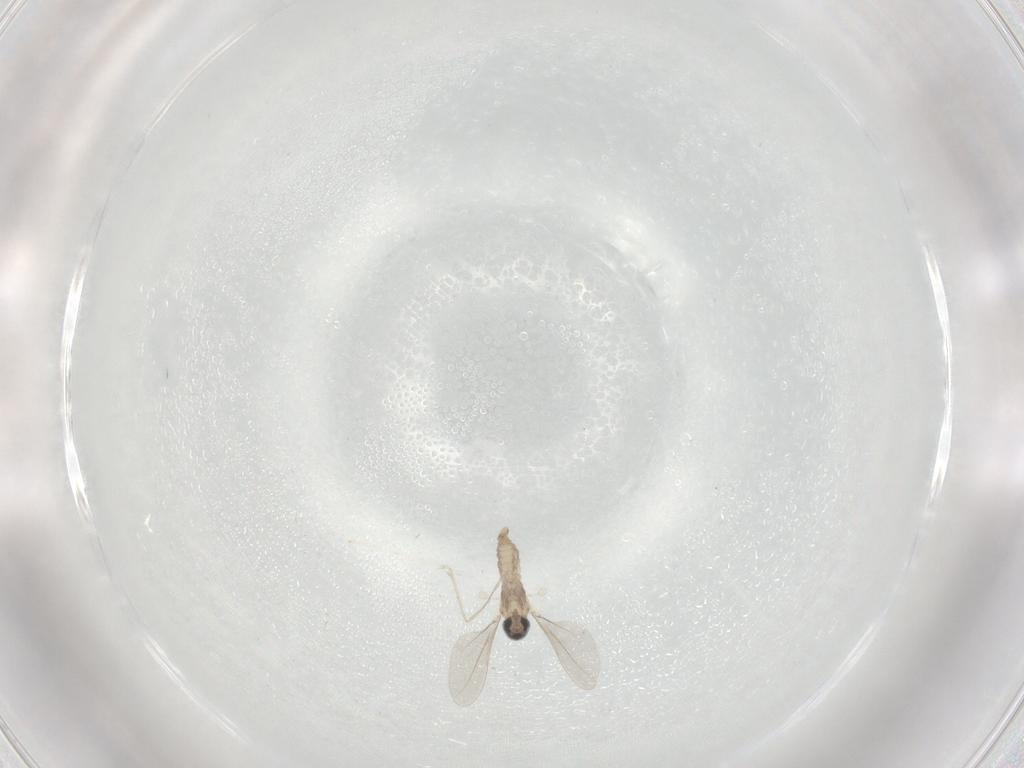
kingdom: Animalia
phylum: Arthropoda
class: Insecta
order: Diptera
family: Cecidomyiidae
